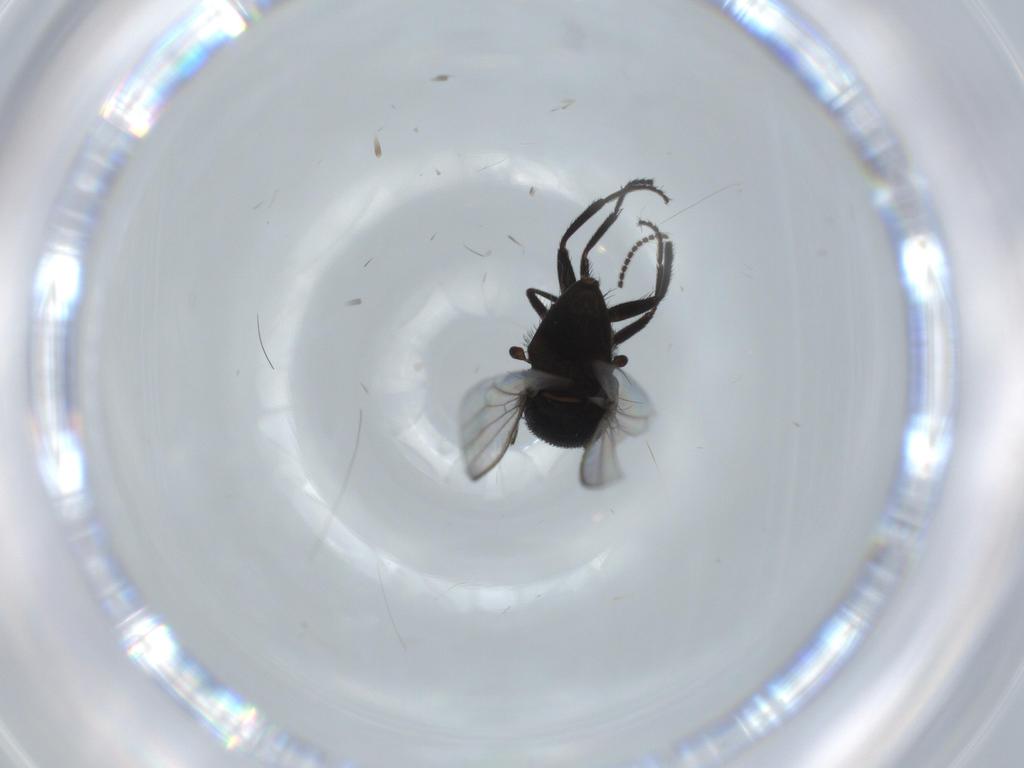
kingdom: Animalia
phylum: Arthropoda
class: Insecta
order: Diptera
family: Milichiidae
